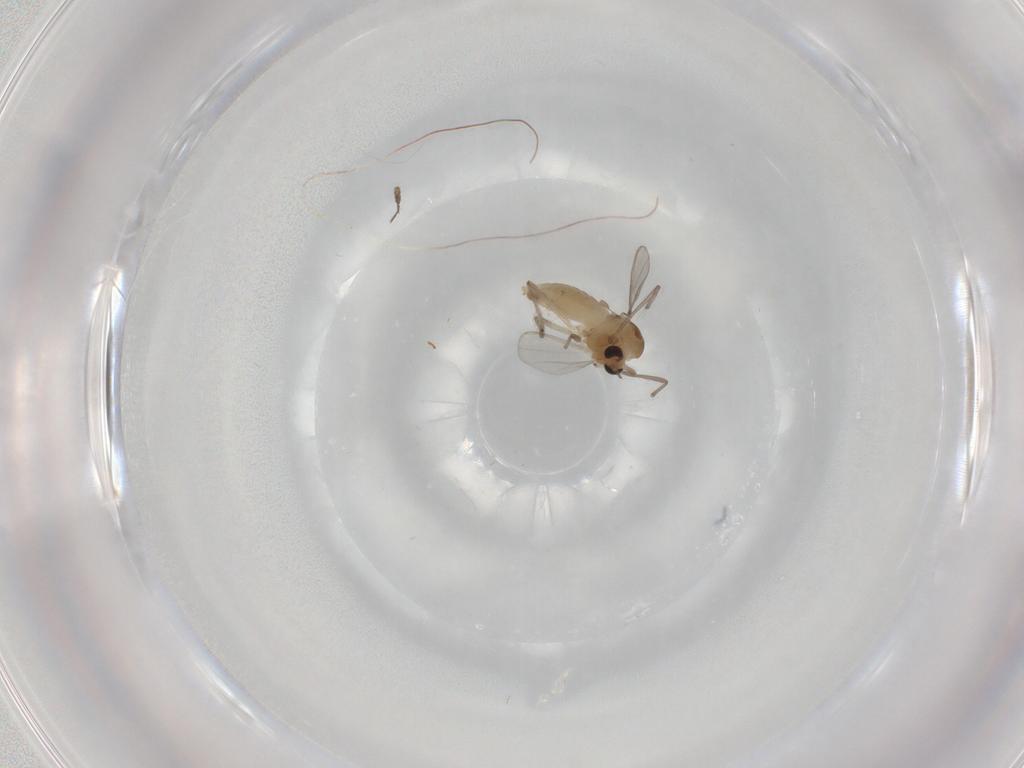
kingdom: Animalia
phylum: Arthropoda
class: Insecta
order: Diptera
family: Chironomidae
